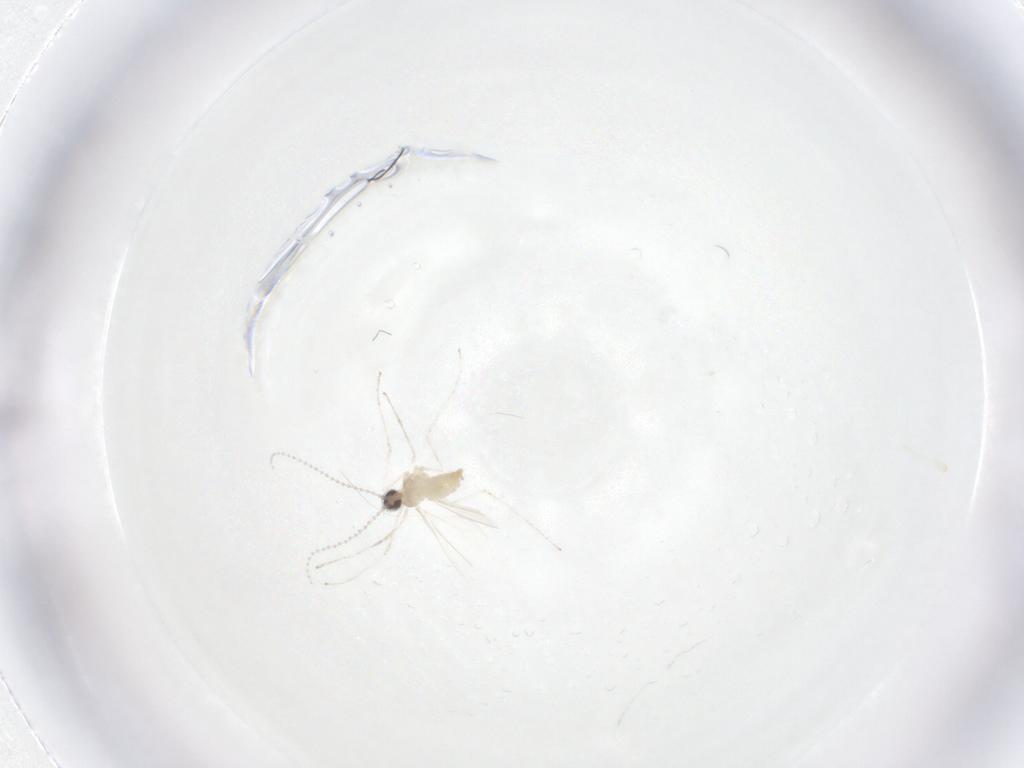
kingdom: Animalia
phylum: Arthropoda
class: Insecta
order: Diptera
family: Cecidomyiidae
